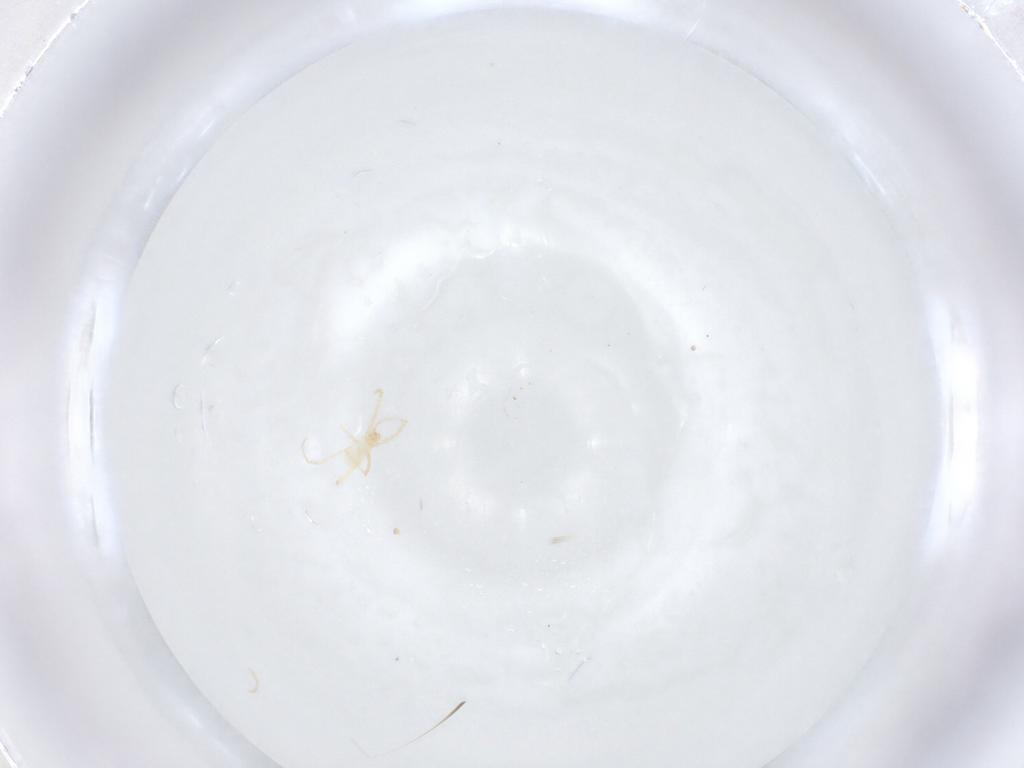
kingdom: Animalia
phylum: Arthropoda
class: Arachnida
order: Trombidiformes
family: Erythraeidae
